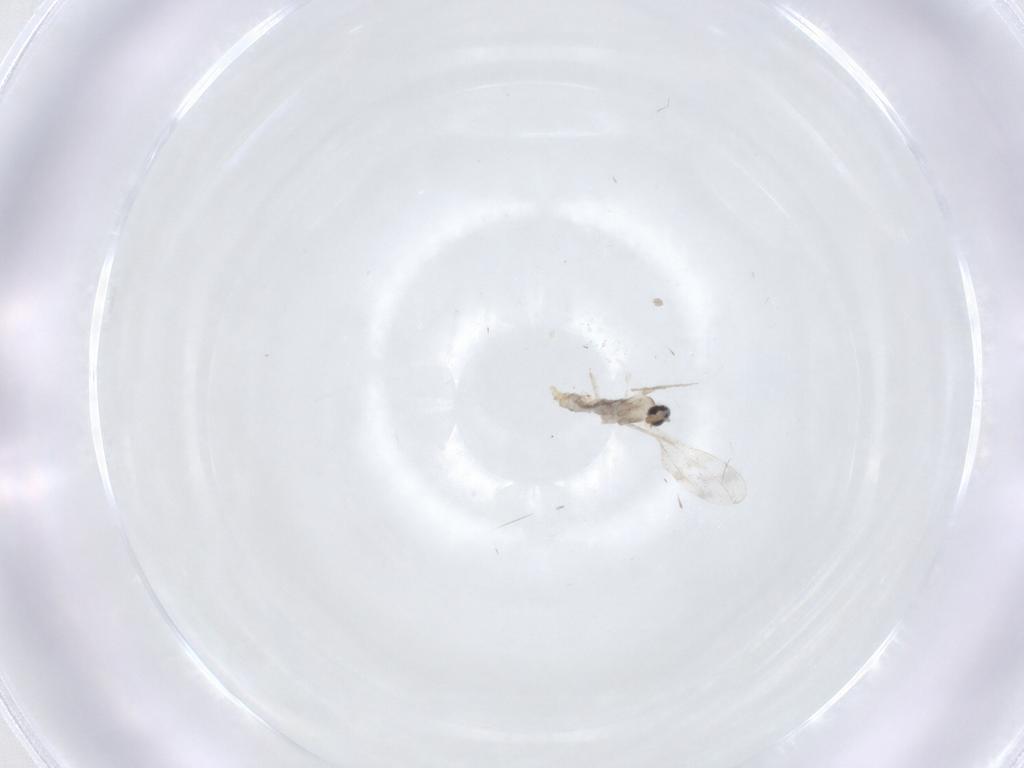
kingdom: Animalia
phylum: Arthropoda
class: Insecta
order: Diptera
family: Cecidomyiidae
